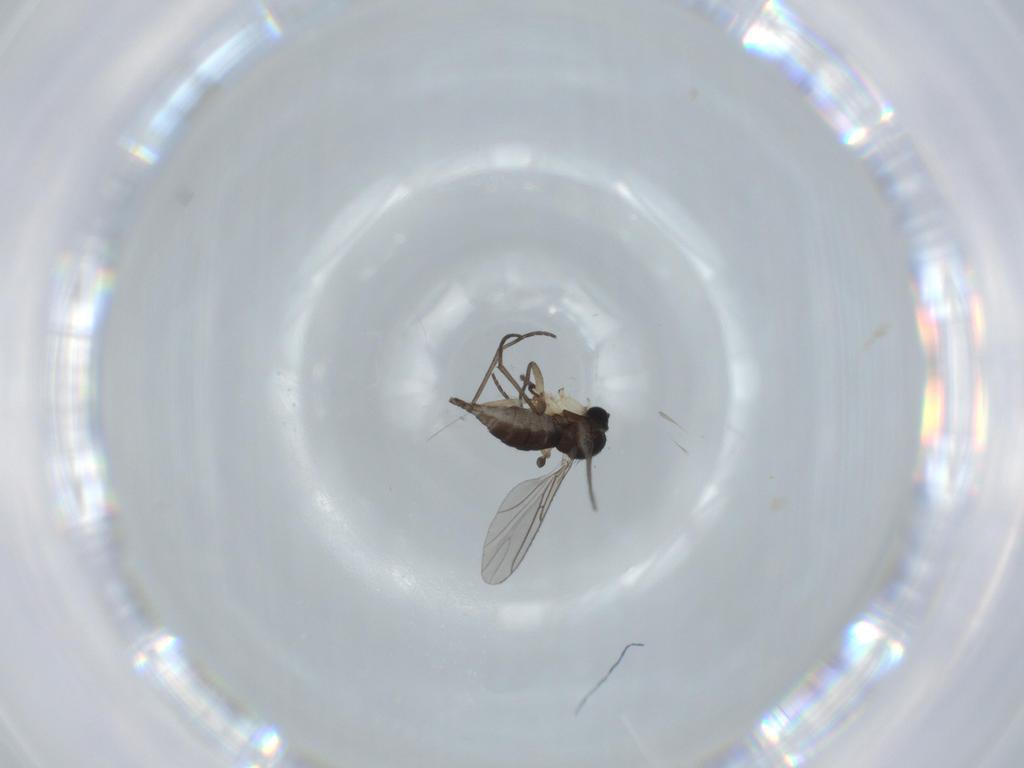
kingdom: Animalia
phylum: Arthropoda
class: Insecta
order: Diptera
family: Sciaridae
